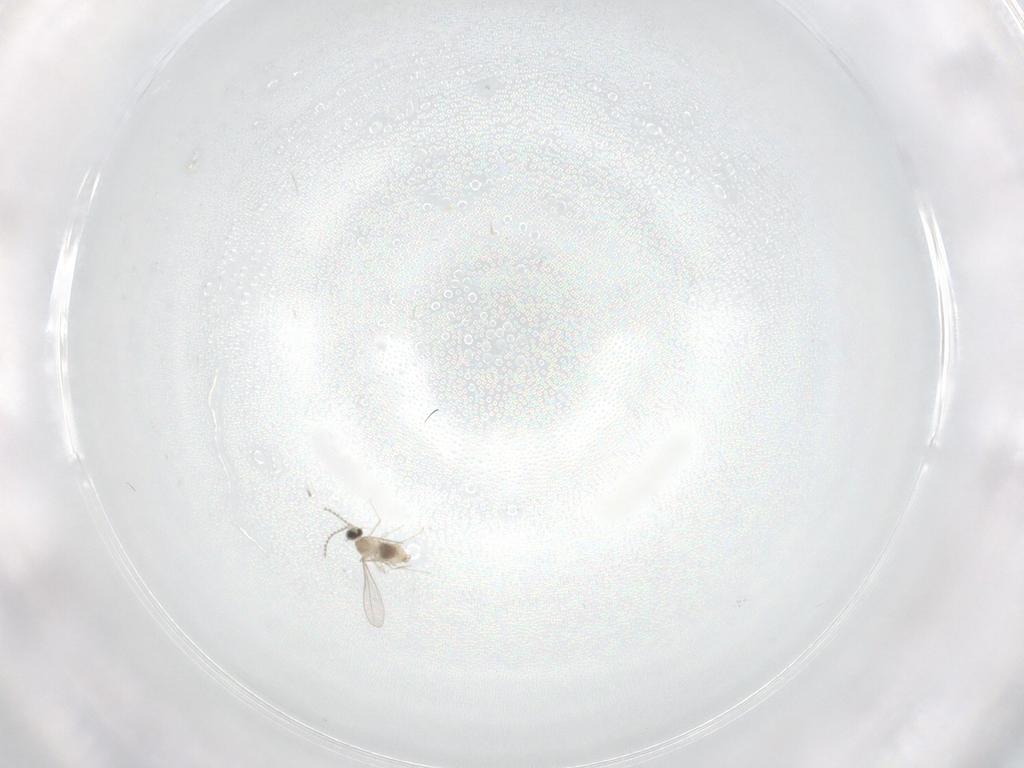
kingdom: Animalia
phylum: Arthropoda
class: Insecta
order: Diptera
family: Cecidomyiidae
